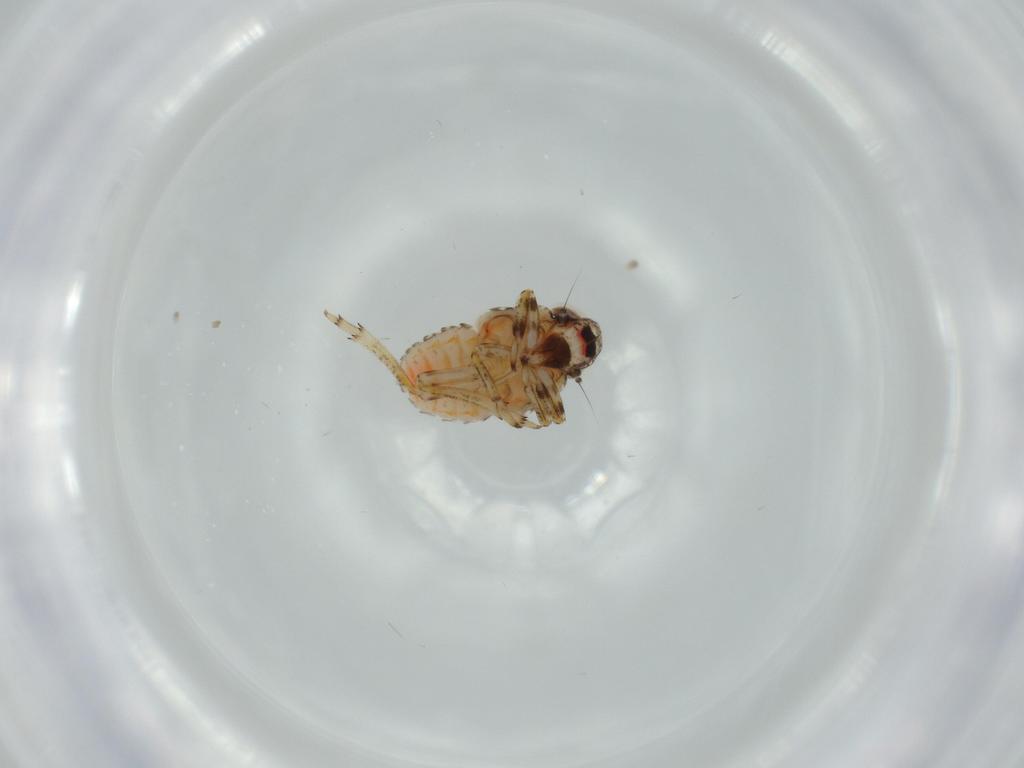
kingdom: Animalia
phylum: Arthropoda
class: Insecta
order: Hemiptera
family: Issidae
